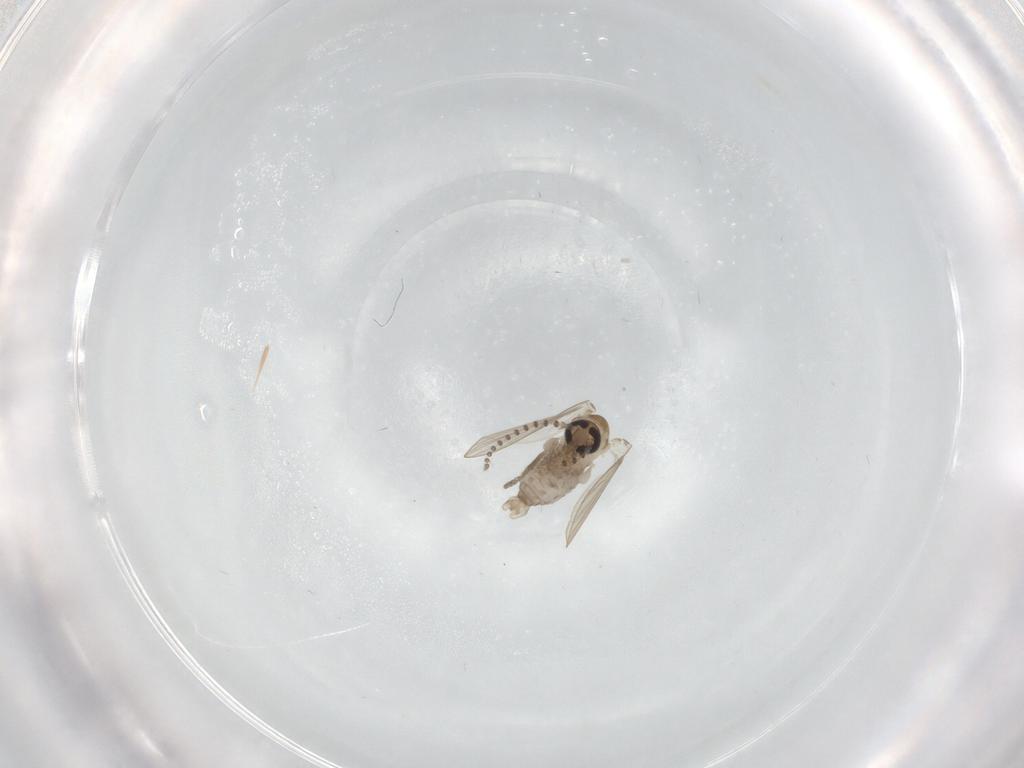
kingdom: Animalia
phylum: Arthropoda
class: Insecta
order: Diptera
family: Psychodidae
